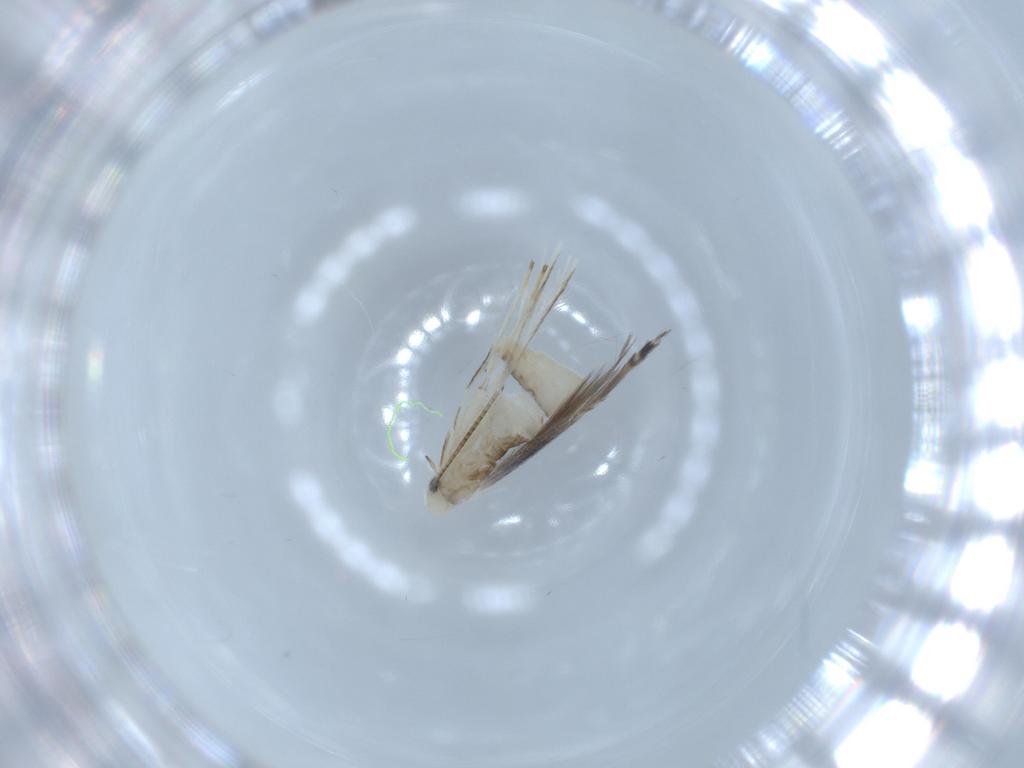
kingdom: Animalia
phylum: Arthropoda
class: Insecta
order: Lepidoptera
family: Gracillariidae
